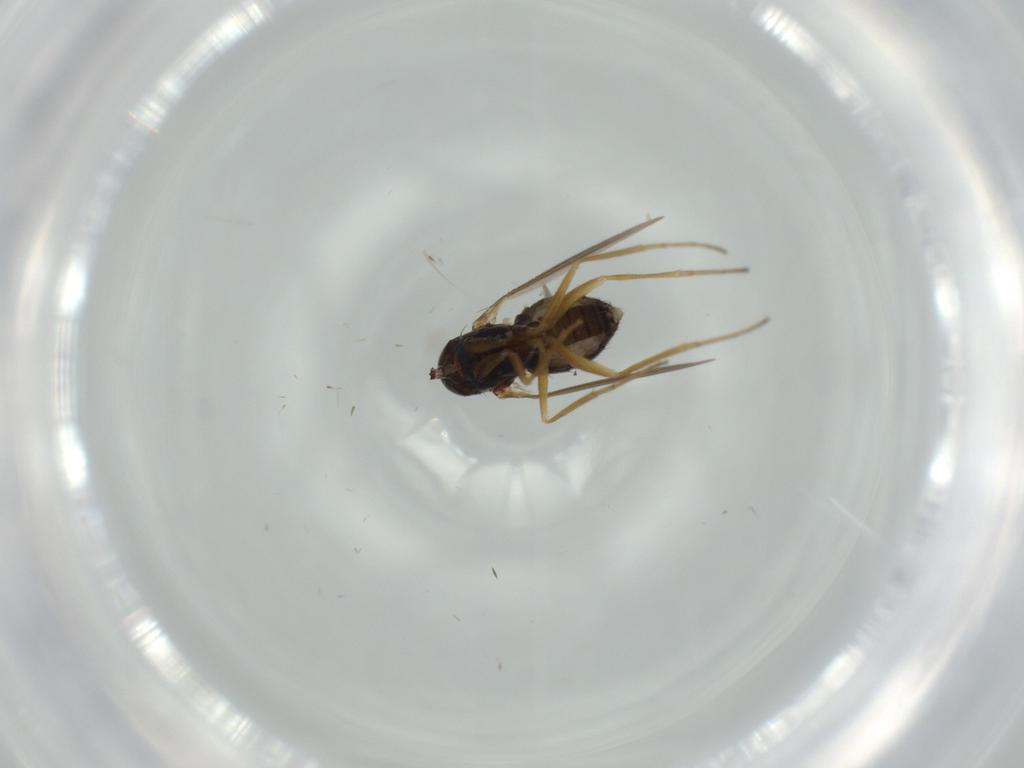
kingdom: Animalia
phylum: Arthropoda
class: Insecta
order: Diptera
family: Dolichopodidae
